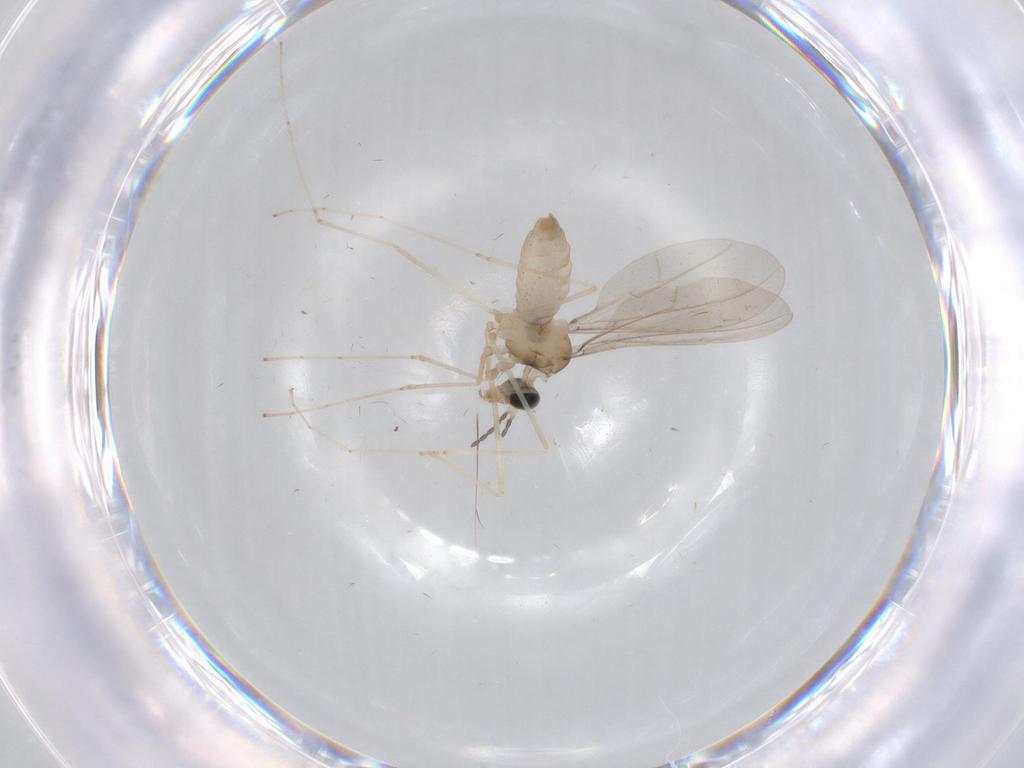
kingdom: Animalia
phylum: Arthropoda
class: Insecta
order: Diptera
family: Mycetophilidae
